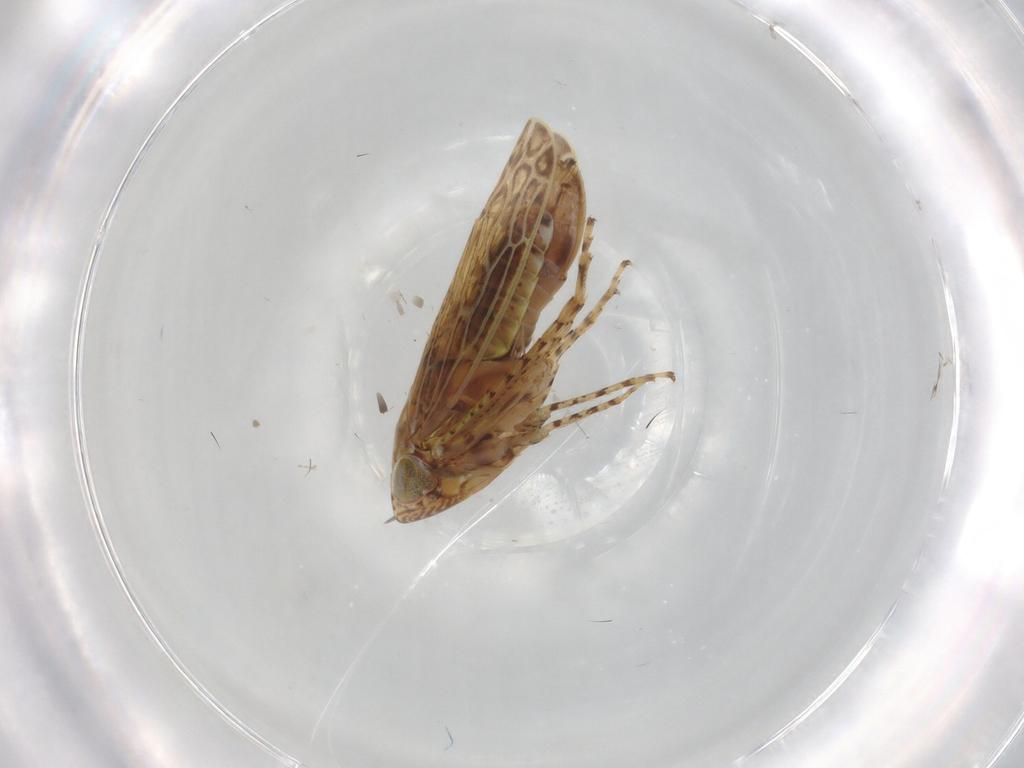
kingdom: Animalia
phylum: Arthropoda
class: Insecta
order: Hemiptera
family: Cicadellidae
